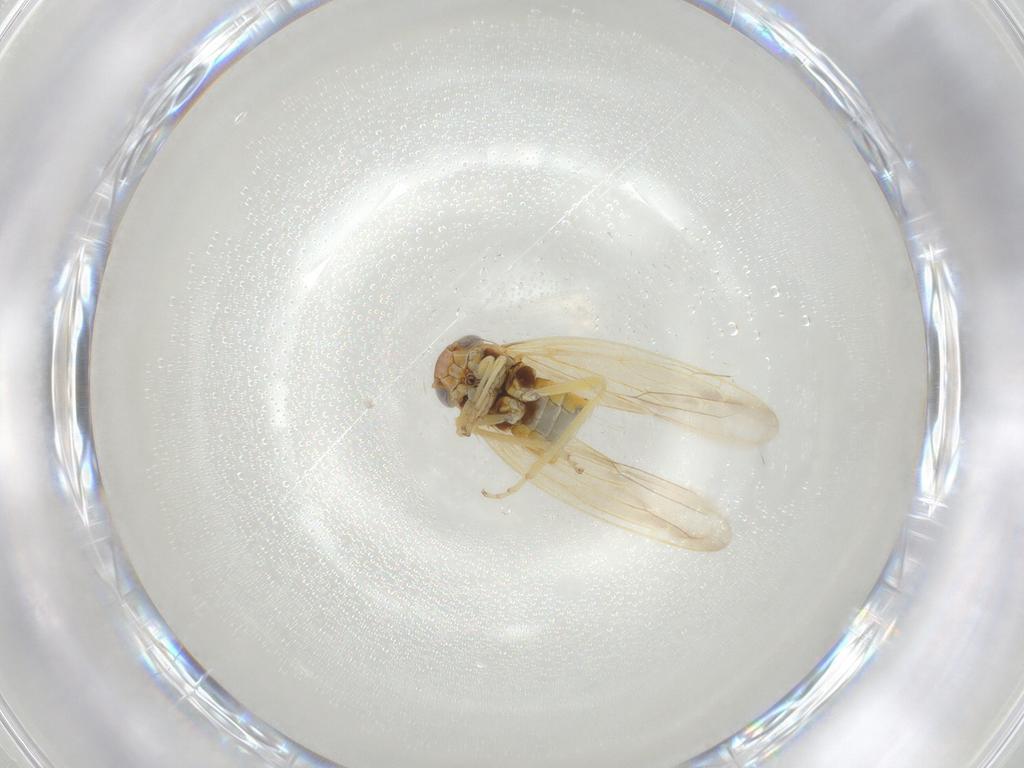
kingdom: Animalia
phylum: Arthropoda
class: Insecta
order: Hemiptera
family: Cicadellidae
